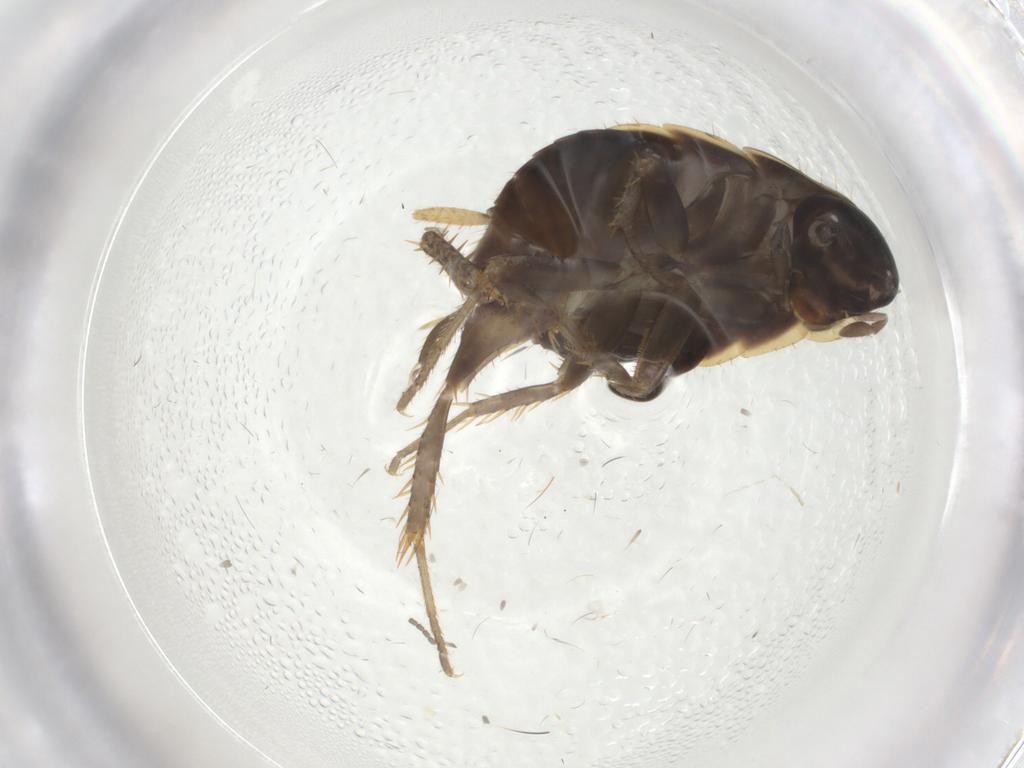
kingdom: Animalia
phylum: Arthropoda
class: Insecta
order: Blattodea
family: Ectobiidae
